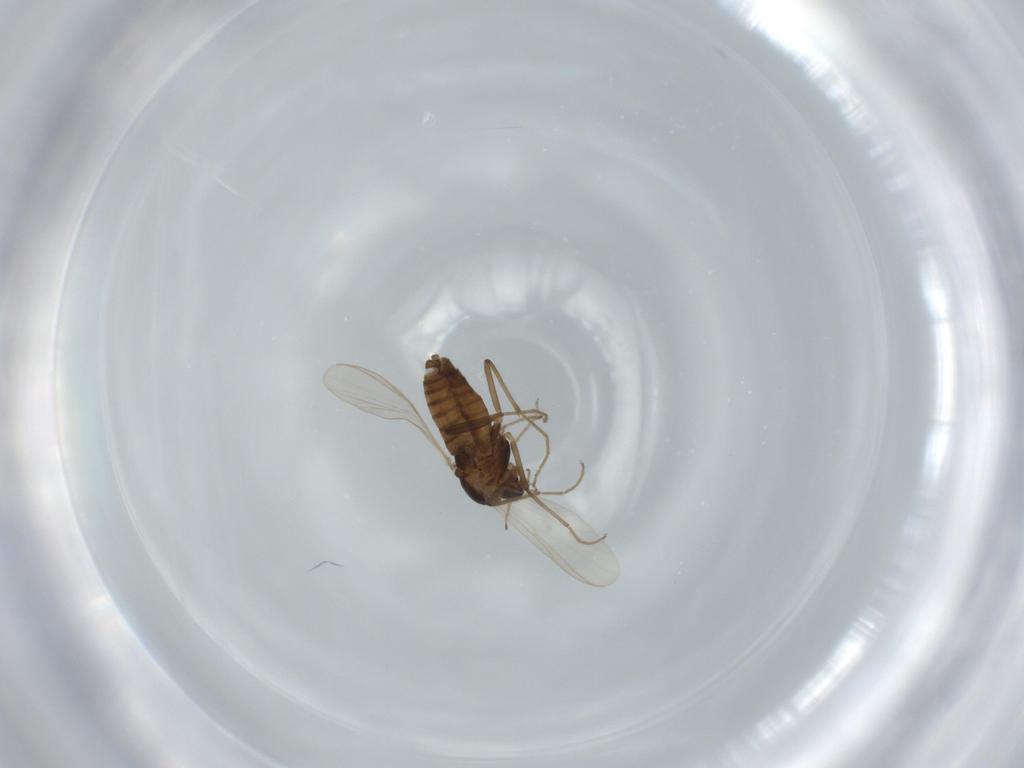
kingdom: Animalia
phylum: Arthropoda
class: Insecta
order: Diptera
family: Chironomidae
